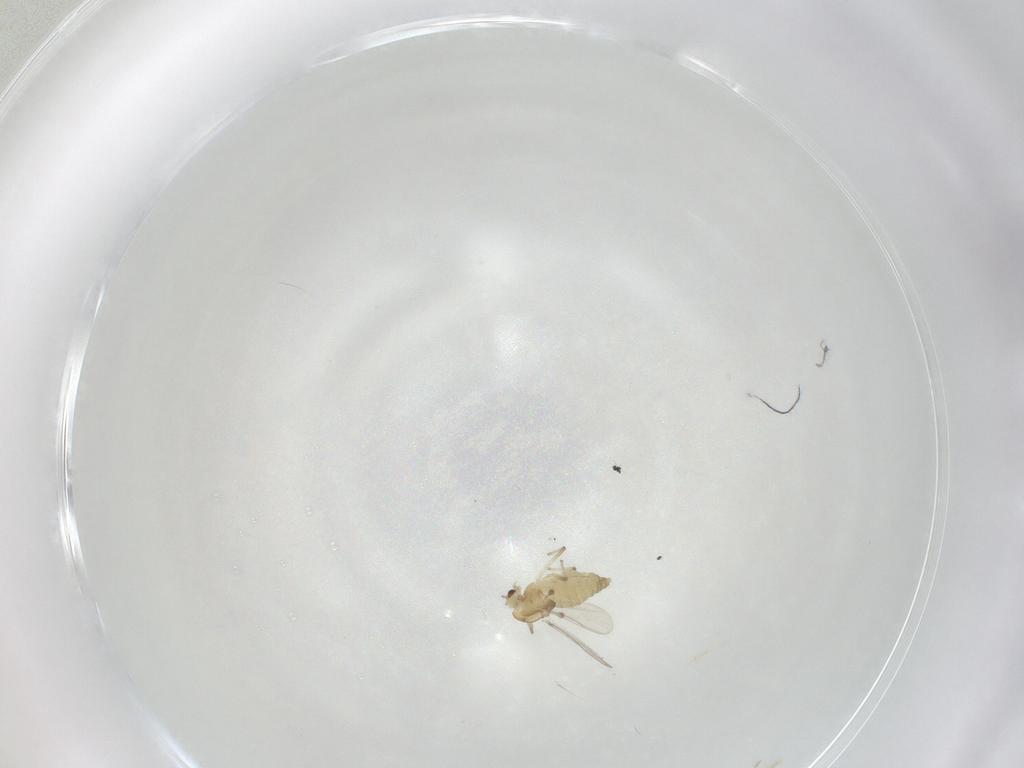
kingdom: Animalia
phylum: Arthropoda
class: Insecta
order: Diptera
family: Chironomidae
